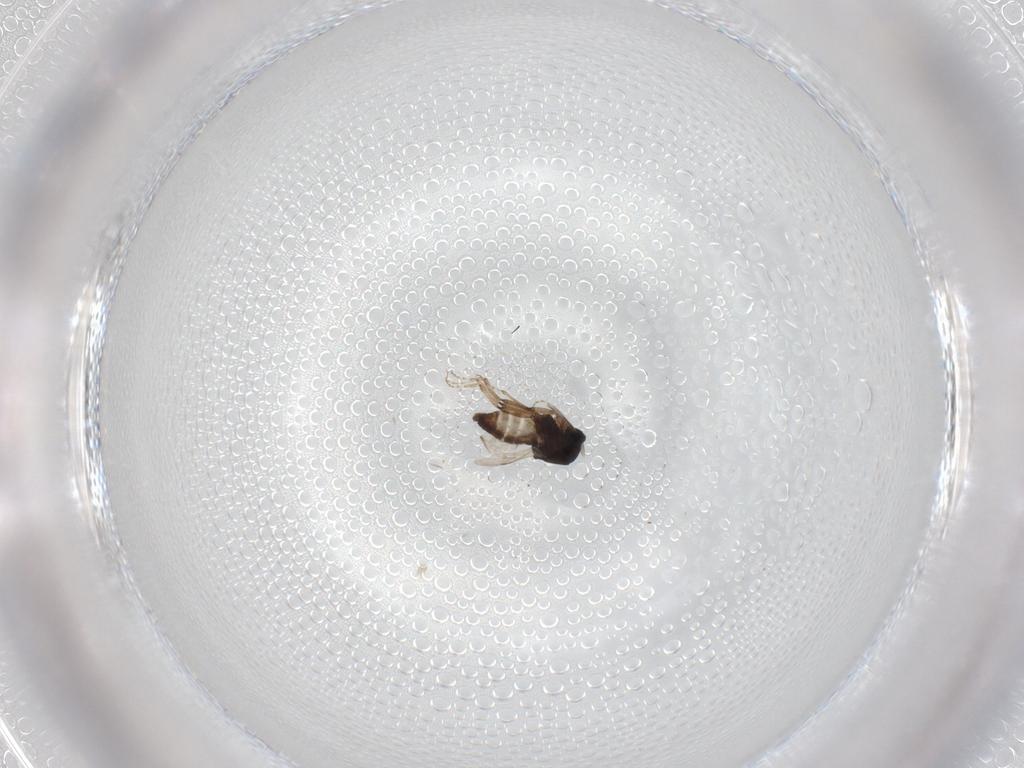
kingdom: Animalia
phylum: Arthropoda
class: Insecta
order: Diptera
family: Ceratopogonidae
